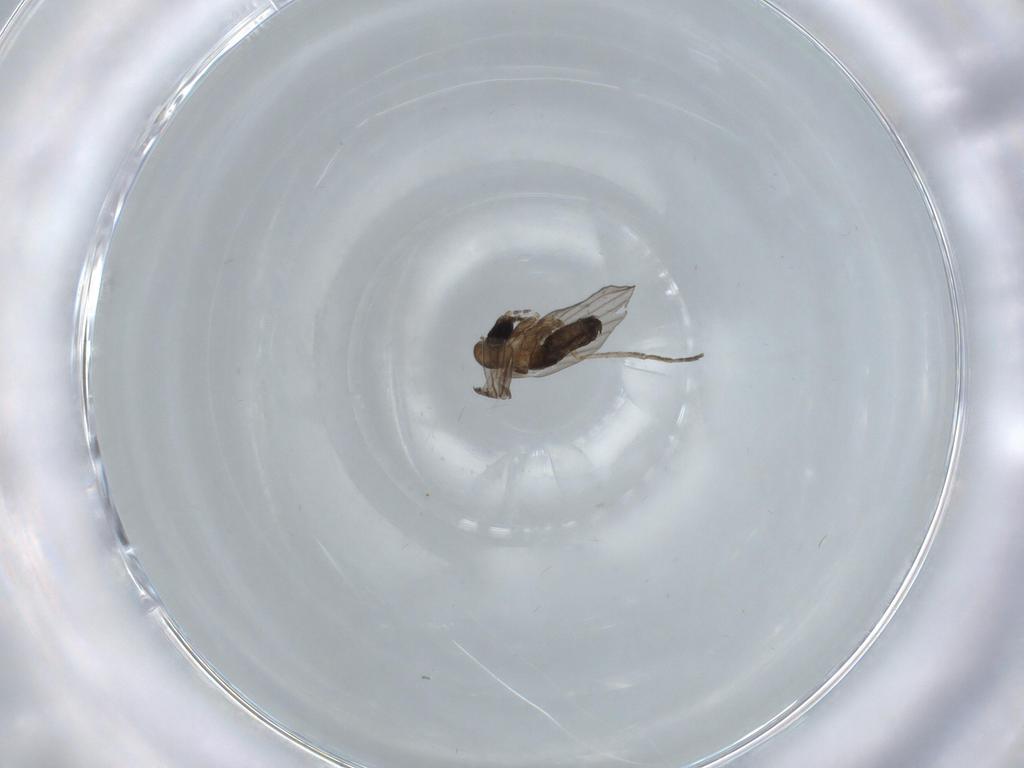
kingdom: Animalia
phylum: Arthropoda
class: Insecta
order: Diptera
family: Psychodidae
